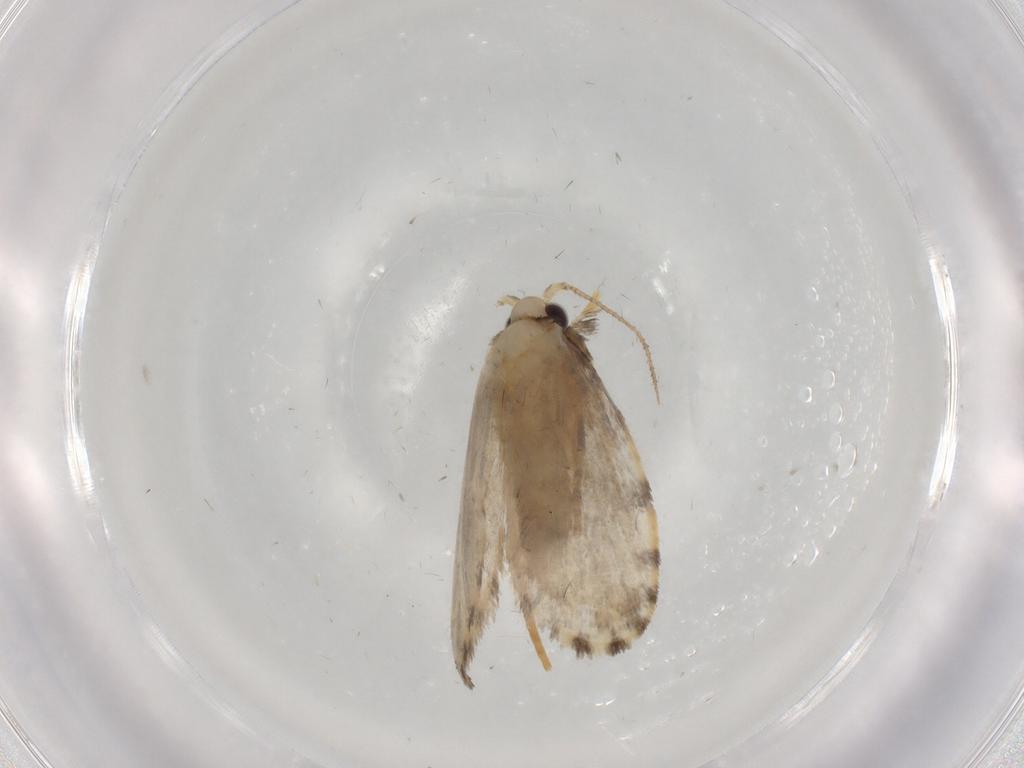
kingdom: Animalia
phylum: Arthropoda
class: Insecta
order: Lepidoptera
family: Psychidae
